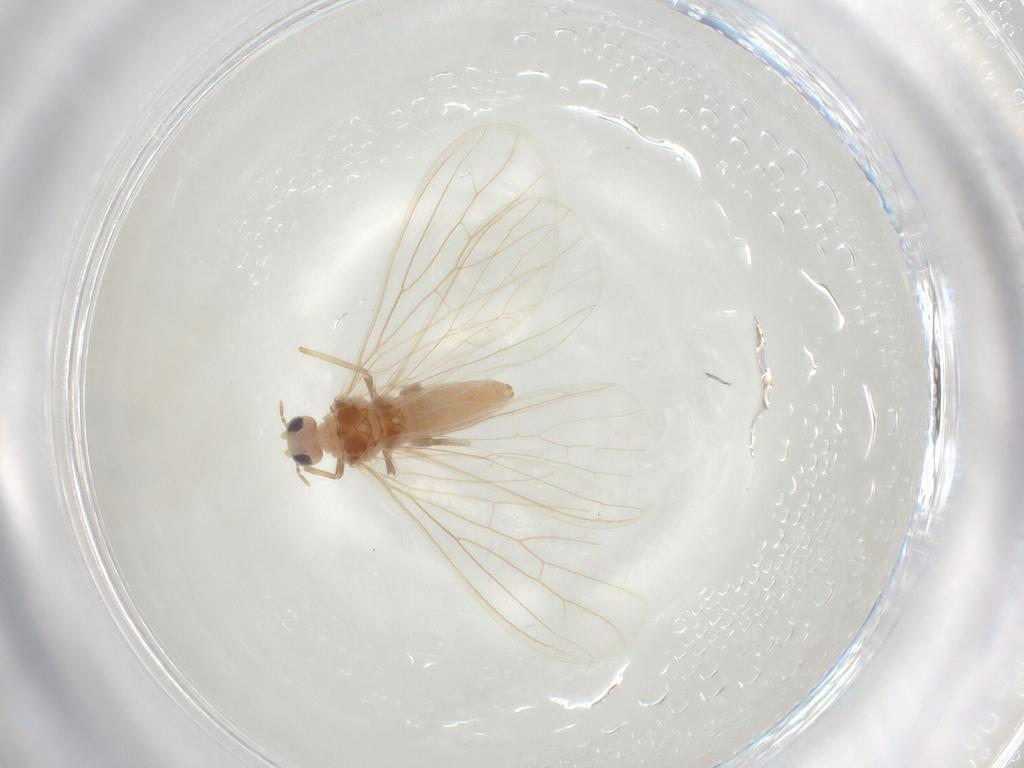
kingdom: Animalia
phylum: Arthropoda
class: Insecta
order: Neuroptera
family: Coniopterygidae
